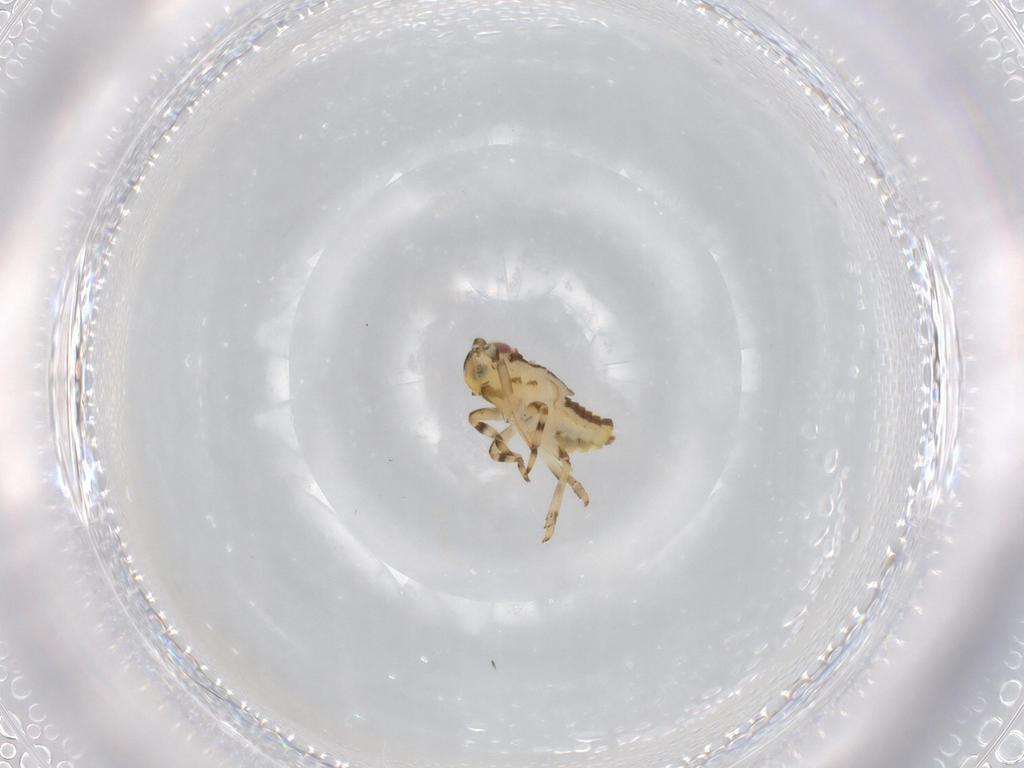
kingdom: Animalia
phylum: Arthropoda
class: Insecta
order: Hemiptera
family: Issidae
